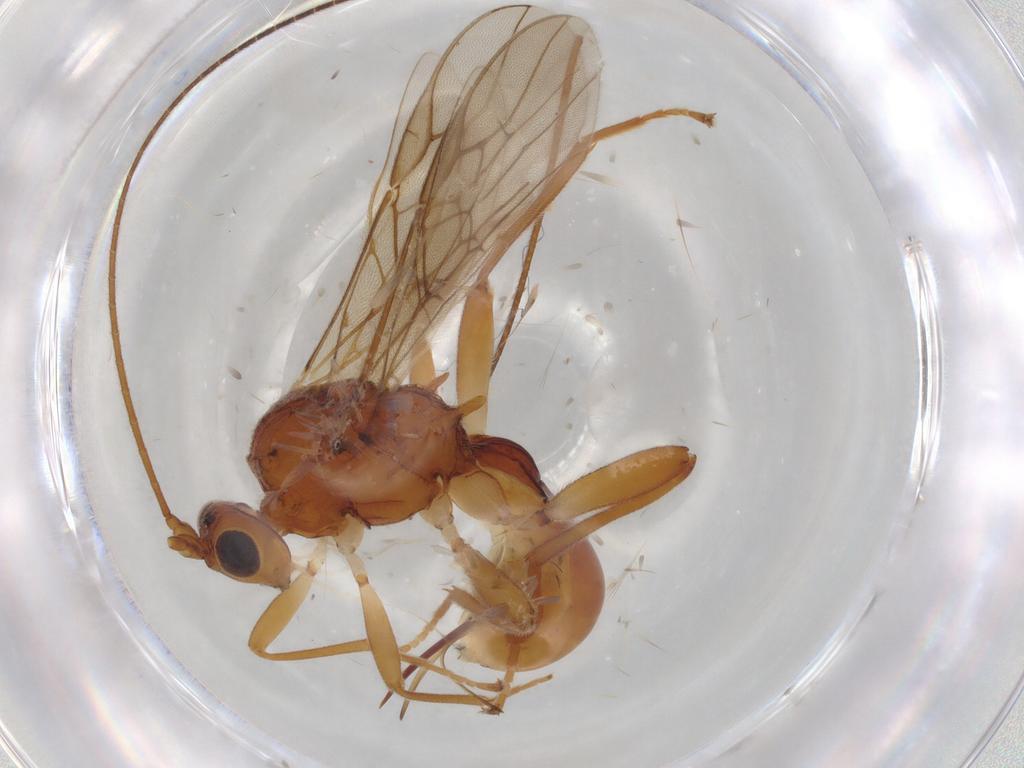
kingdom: Animalia
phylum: Arthropoda
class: Insecta
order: Hymenoptera
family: Braconidae
